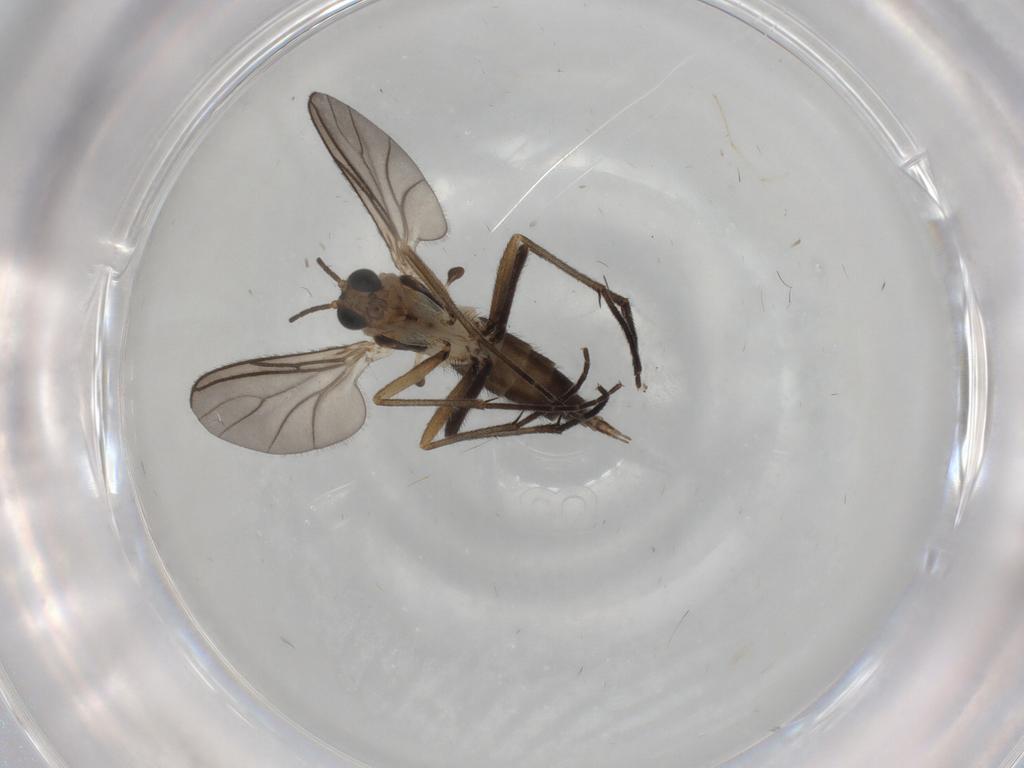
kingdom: Animalia
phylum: Arthropoda
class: Insecta
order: Diptera
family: Sciaridae
